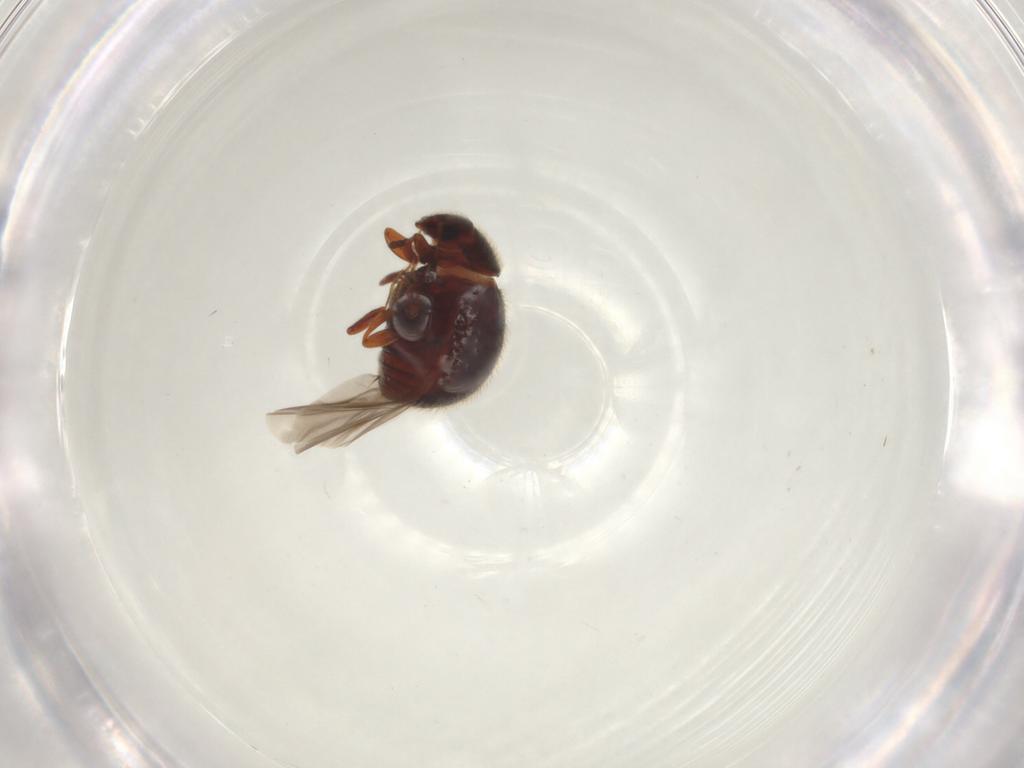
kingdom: Animalia
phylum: Arthropoda
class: Insecta
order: Coleoptera
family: Sphindidae
